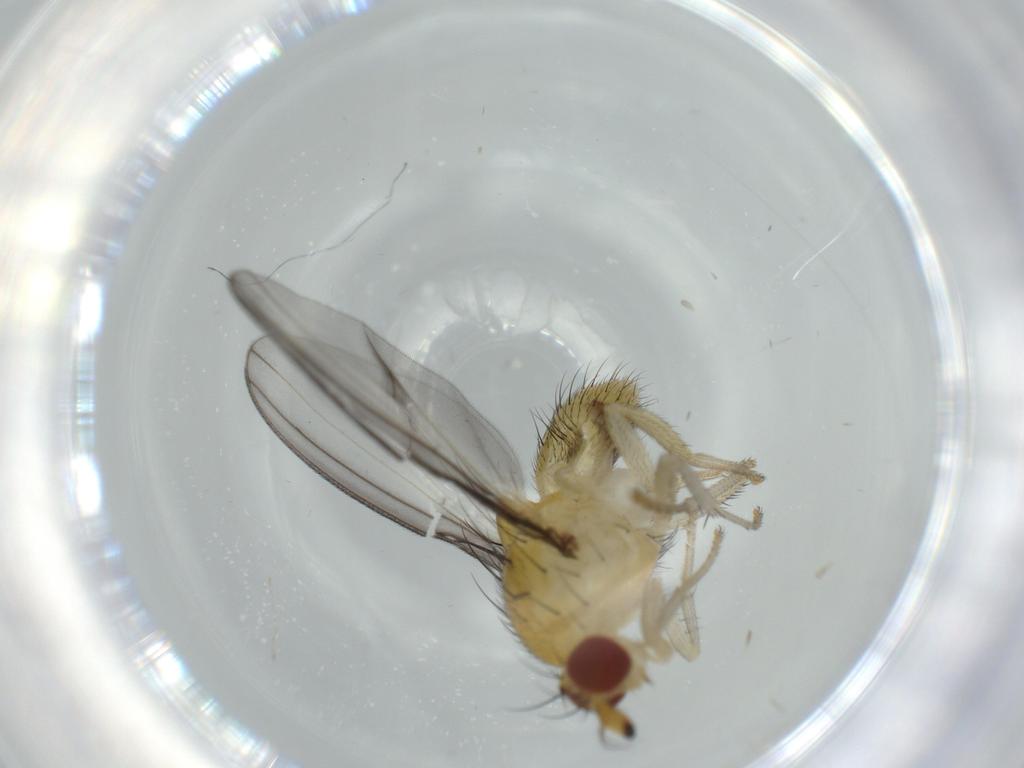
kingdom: Animalia
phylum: Arthropoda
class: Insecta
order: Diptera
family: Lauxaniidae
